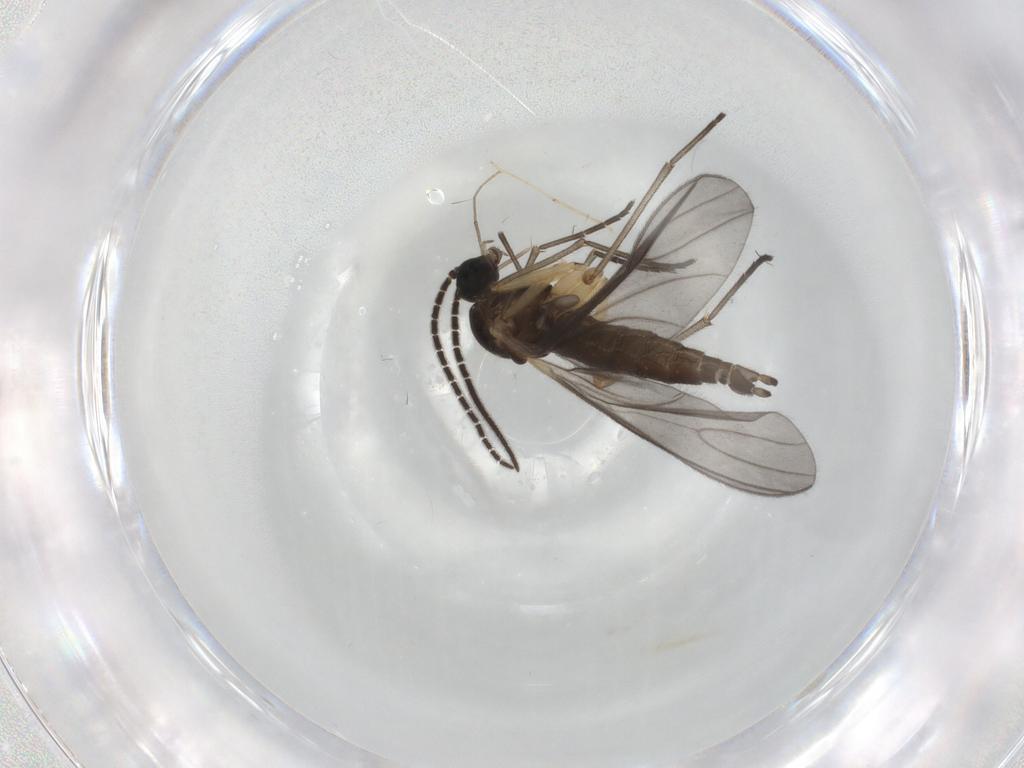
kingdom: Animalia
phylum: Arthropoda
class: Insecta
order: Diptera
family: Sciaridae
